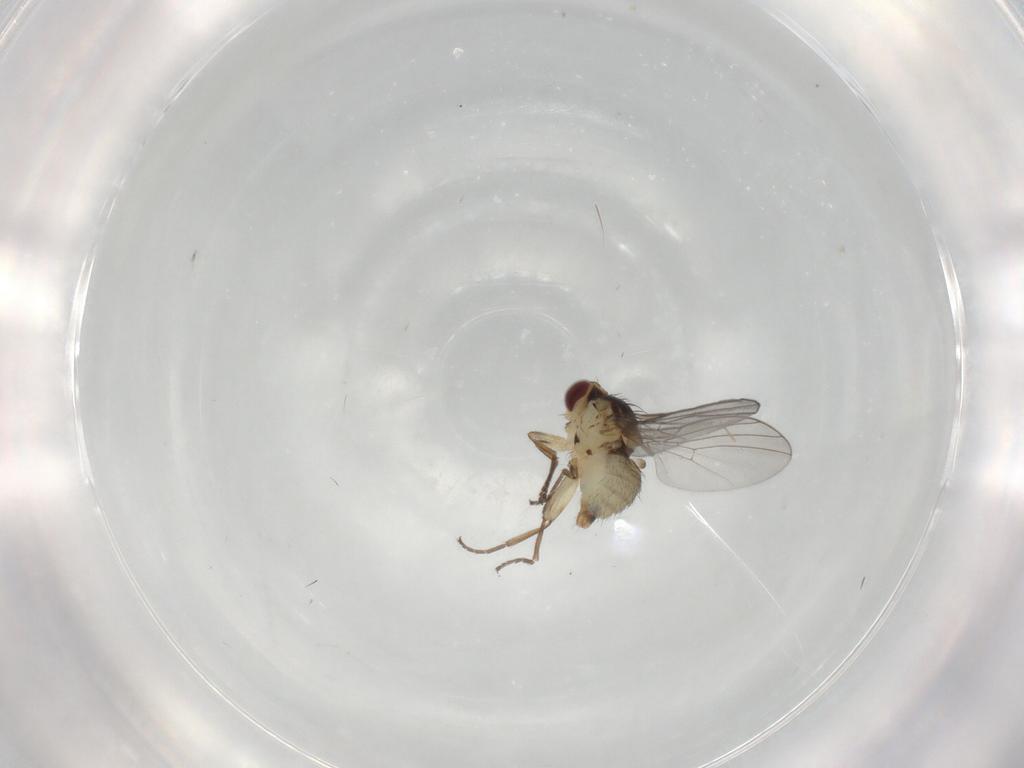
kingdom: Animalia
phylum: Arthropoda
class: Insecta
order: Diptera
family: Agromyzidae
